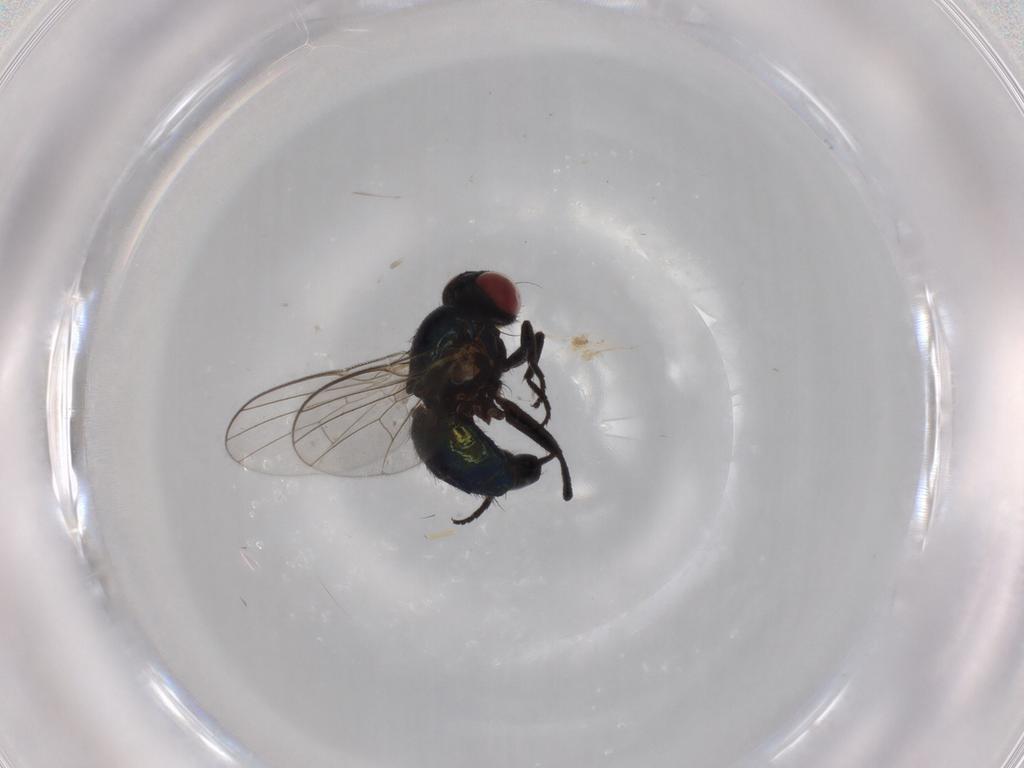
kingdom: Animalia
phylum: Arthropoda
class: Insecta
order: Diptera
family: Agromyzidae
